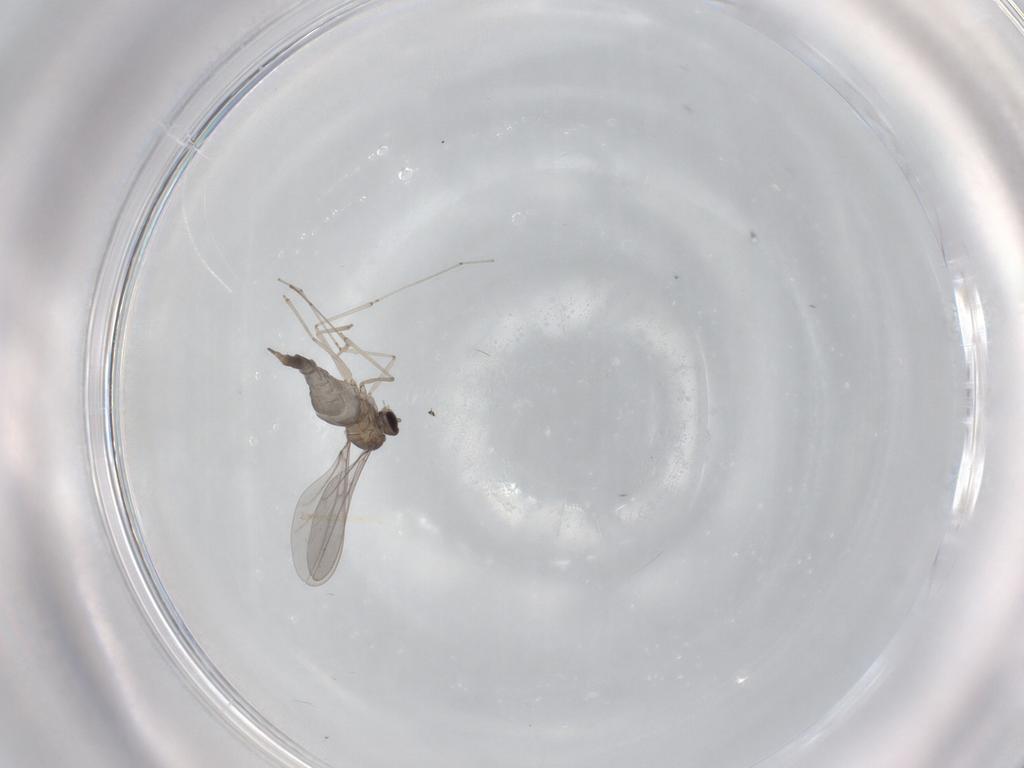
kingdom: Animalia
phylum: Arthropoda
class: Insecta
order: Diptera
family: Cecidomyiidae
